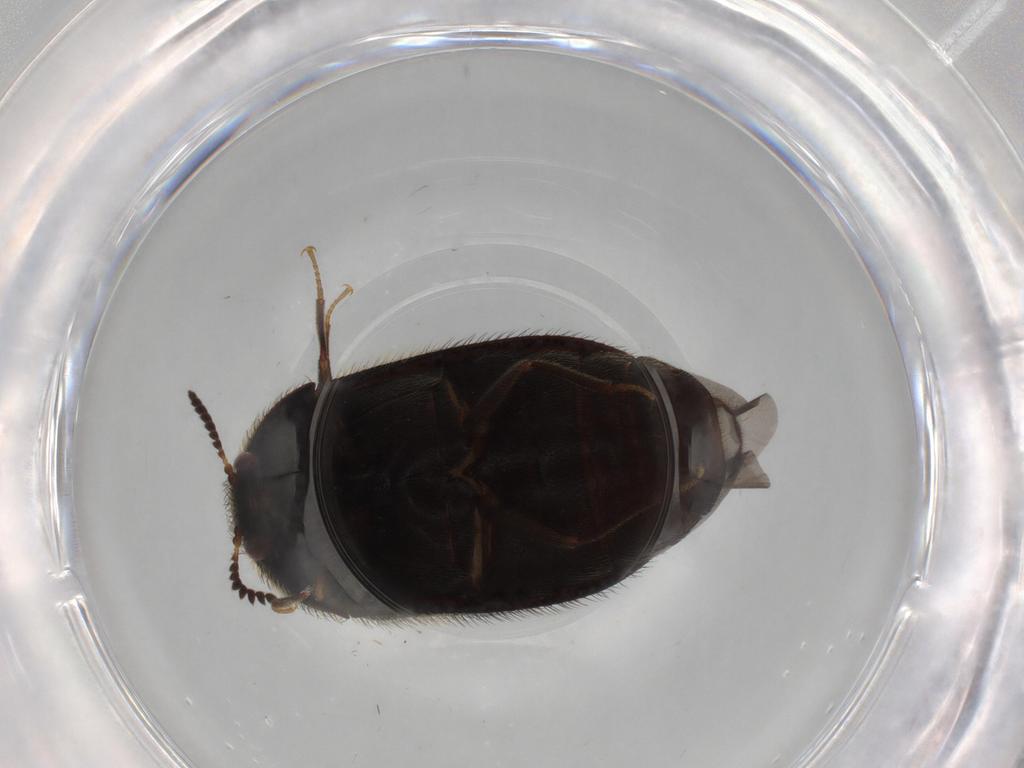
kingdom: Animalia
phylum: Arthropoda
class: Insecta
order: Coleoptera
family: Dermestidae
